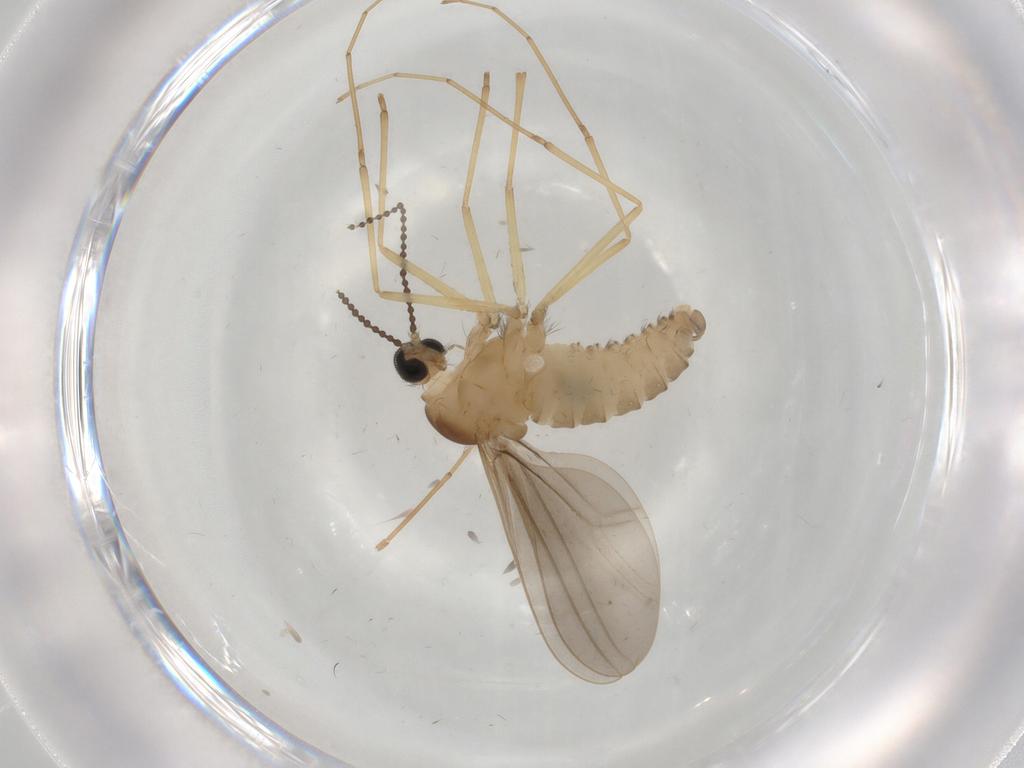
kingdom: Animalia
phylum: Arthropoda
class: Insecta
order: Diptera
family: Cecidomyiidae
